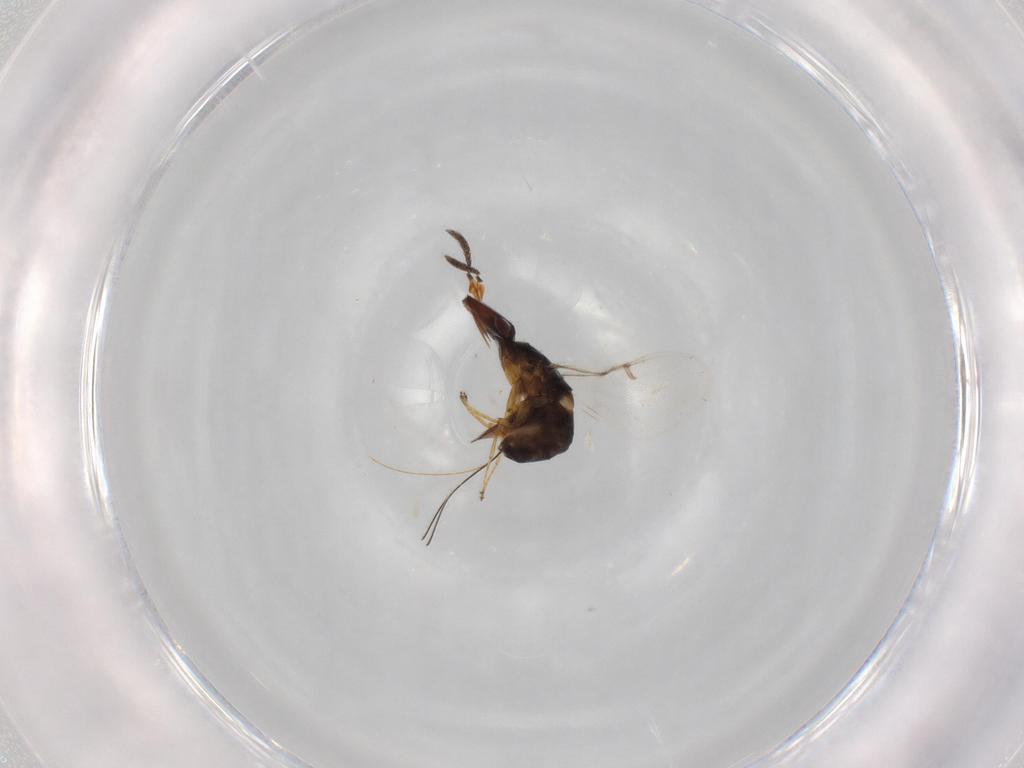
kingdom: Animalia
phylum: Arthropoda
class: Insecta
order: Hymenoptera
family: Agaonidae
